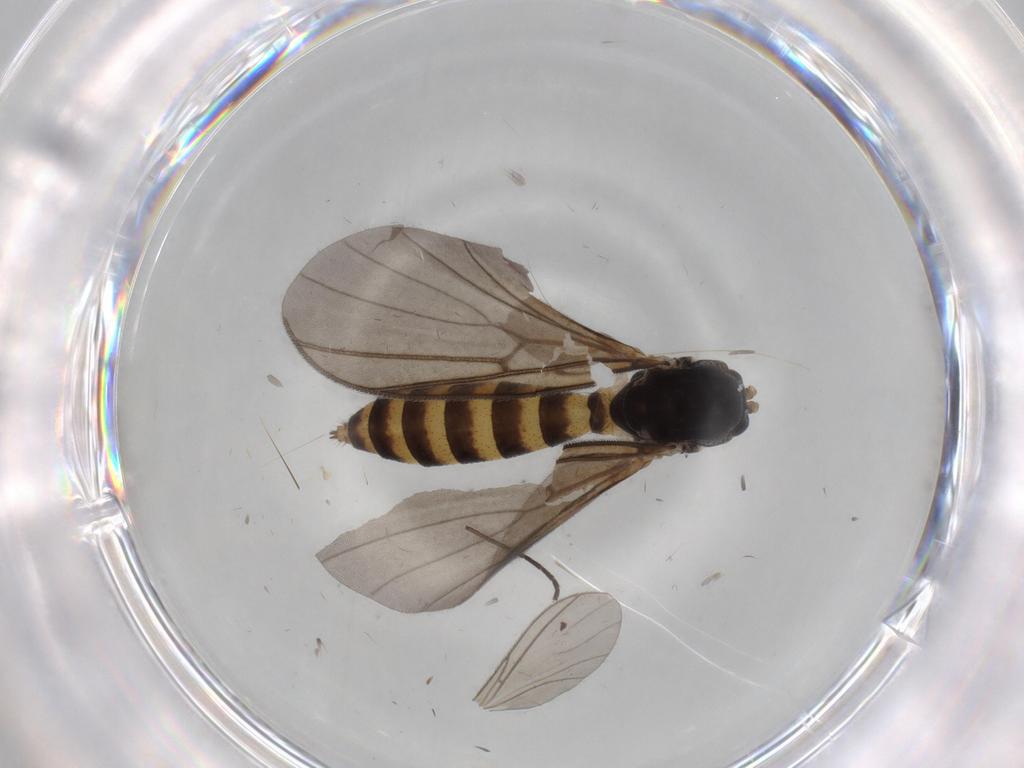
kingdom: Animalia
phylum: Arthropoda
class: Insecta
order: Diptera
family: Mycetophilidae
